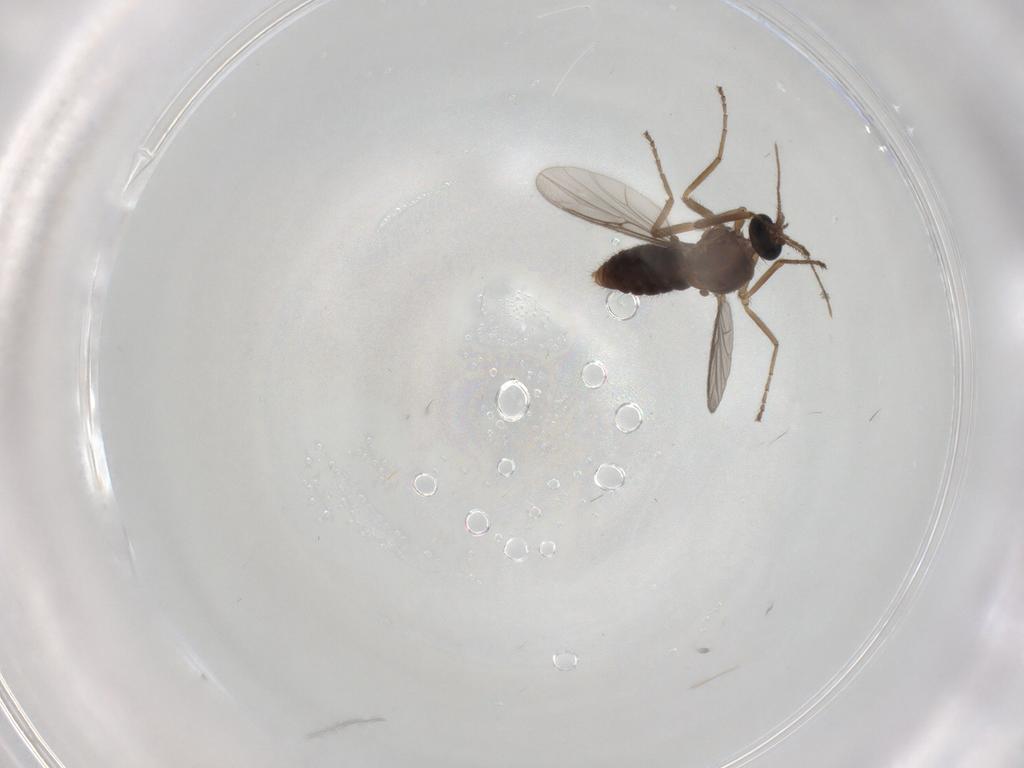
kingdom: Animalia
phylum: Arthropoda
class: Insecta
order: Diptera
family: Ceratopogonidae
